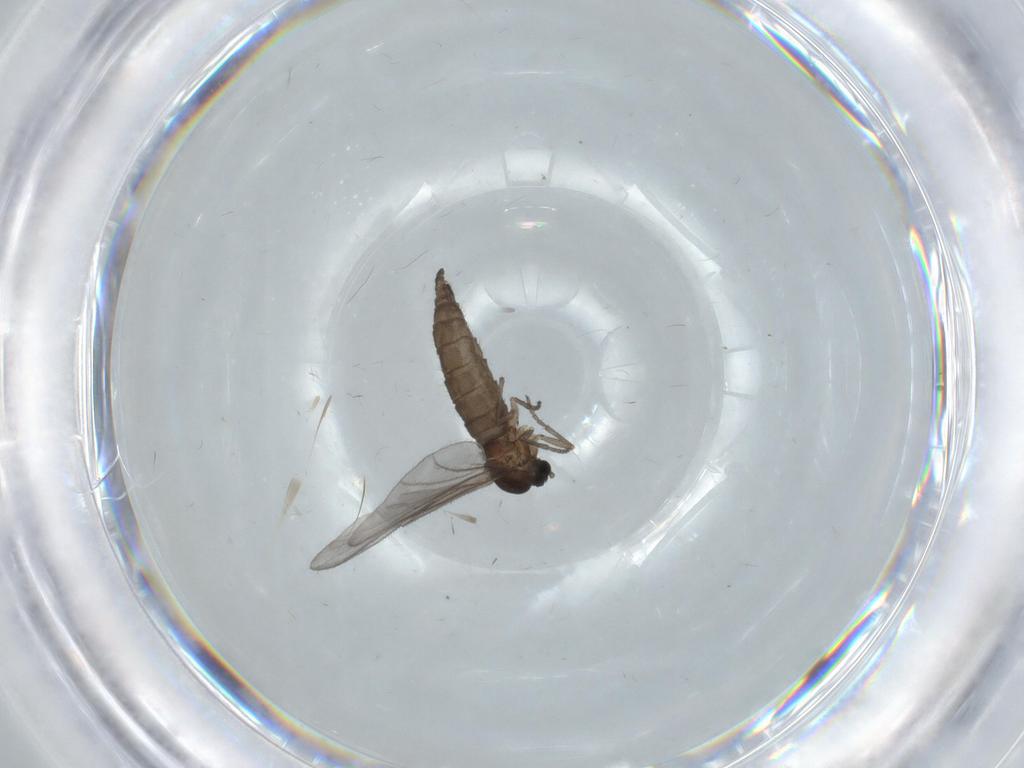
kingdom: Animalia
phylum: Arthropoda
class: Insecta
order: Diptera
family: Sciaridae
